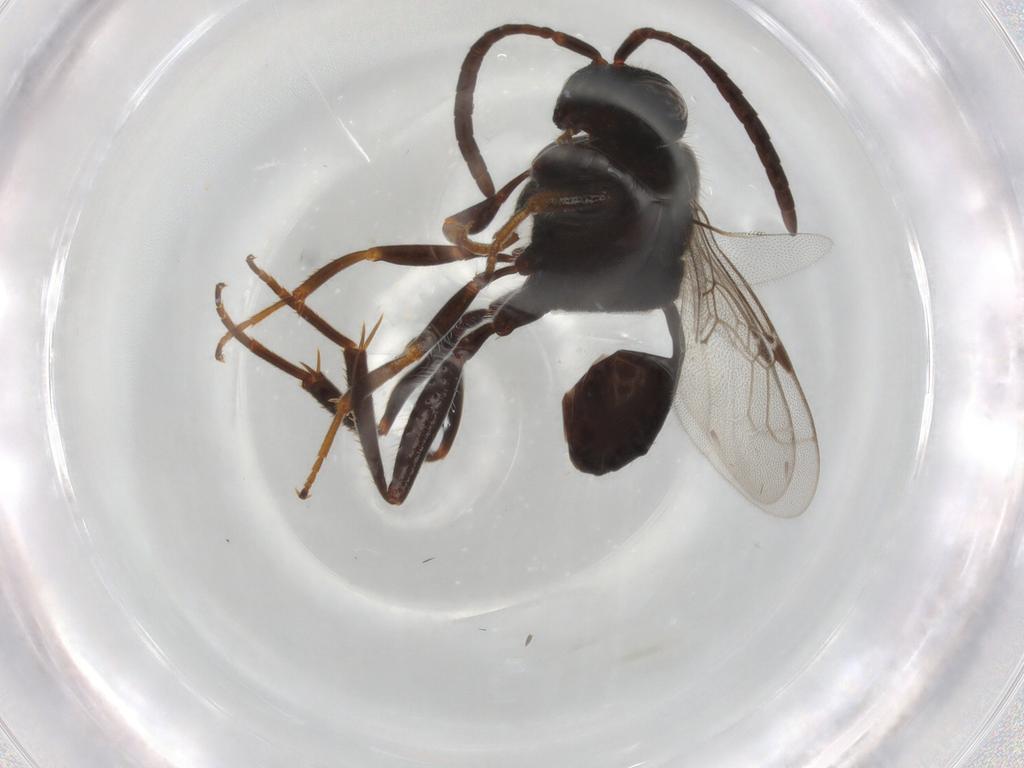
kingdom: Animalia
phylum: Arthropoda
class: Insecta
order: Hymenoptera
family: Evaniidae
